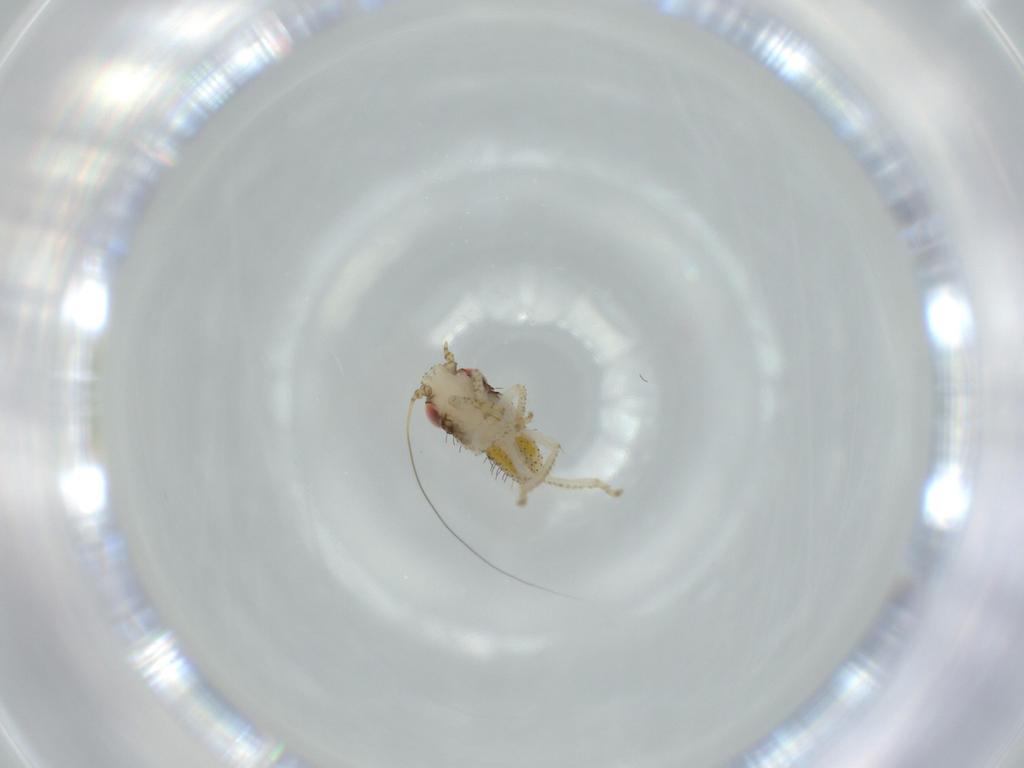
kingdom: Animalia
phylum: Arthropoda
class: Insecta
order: Hemiptera
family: Cicadellidae
